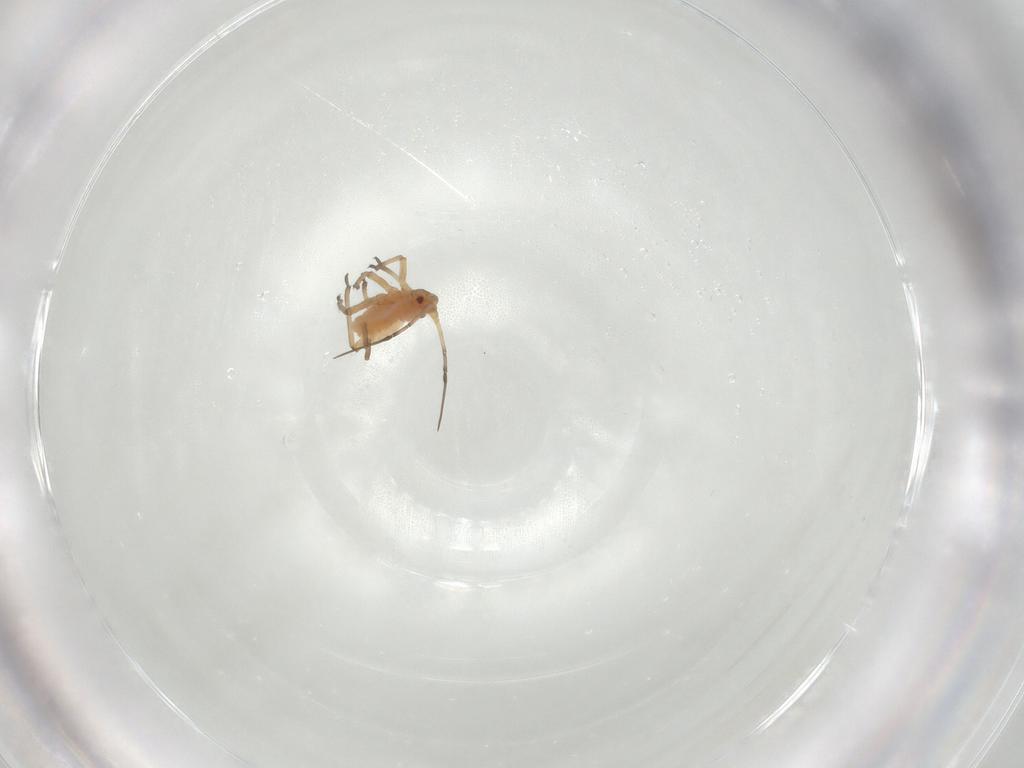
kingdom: Animalia
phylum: Arthropoda
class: Insecta
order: Hemiptera
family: Aphididae
